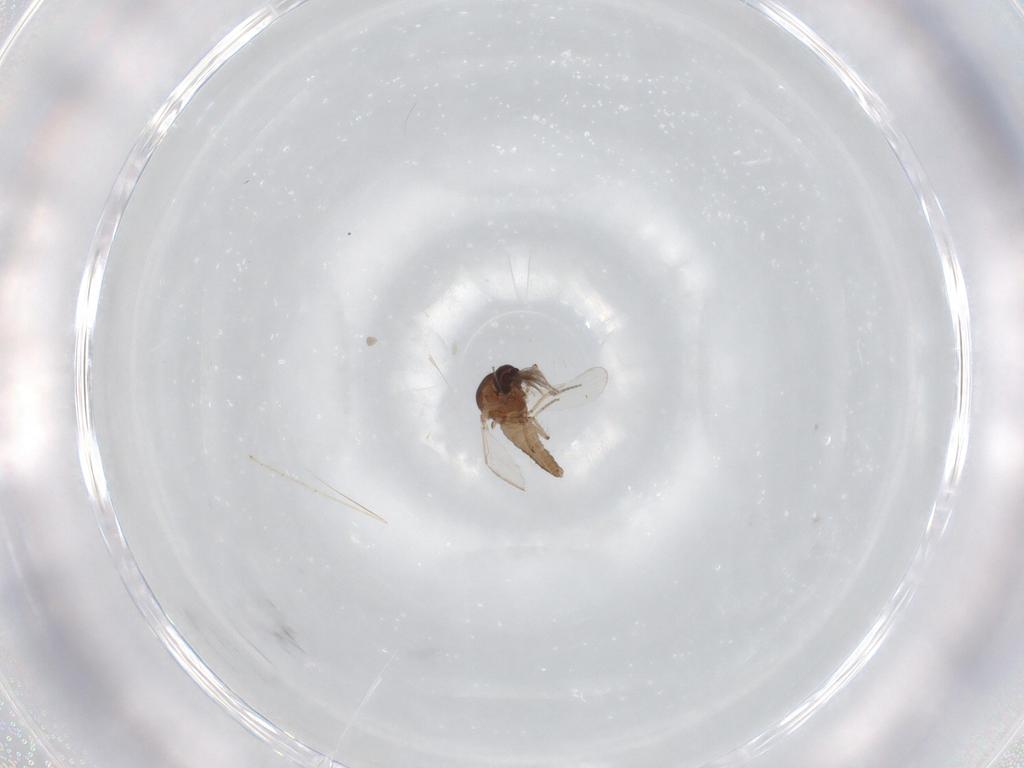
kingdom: Animalia
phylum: Arthropoda
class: Insecta
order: Diptera
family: Ceratopogonidae
